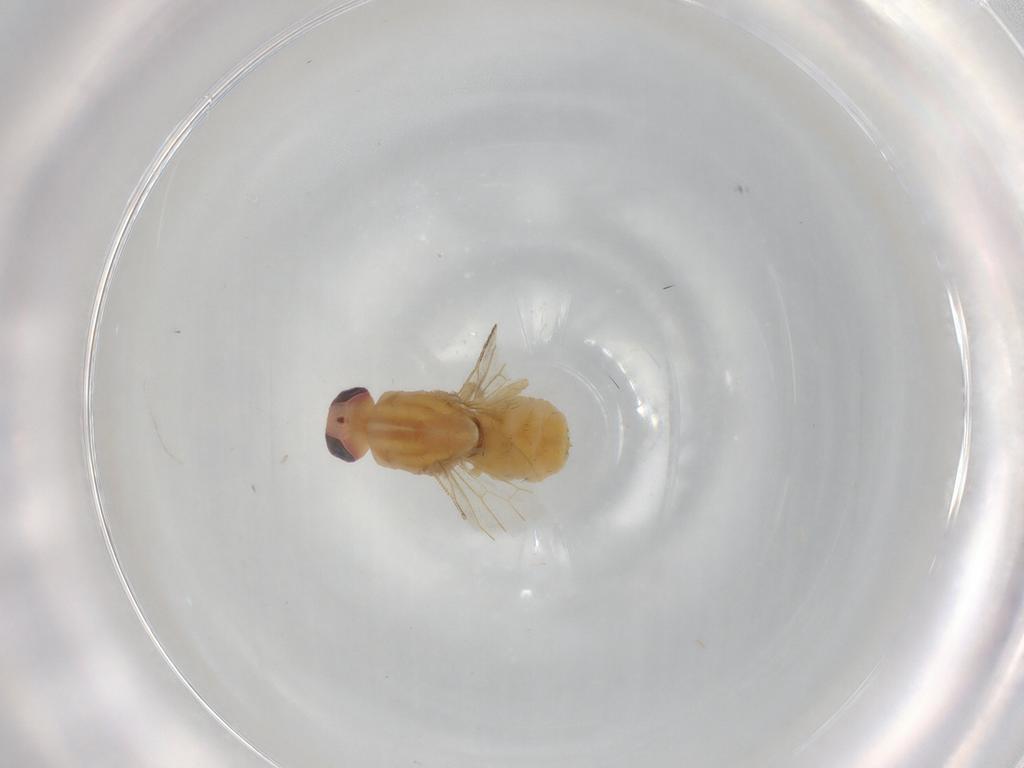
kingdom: Animalia
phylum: Arthropoda
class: Insecta
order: Diptera
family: Chyromyidae
